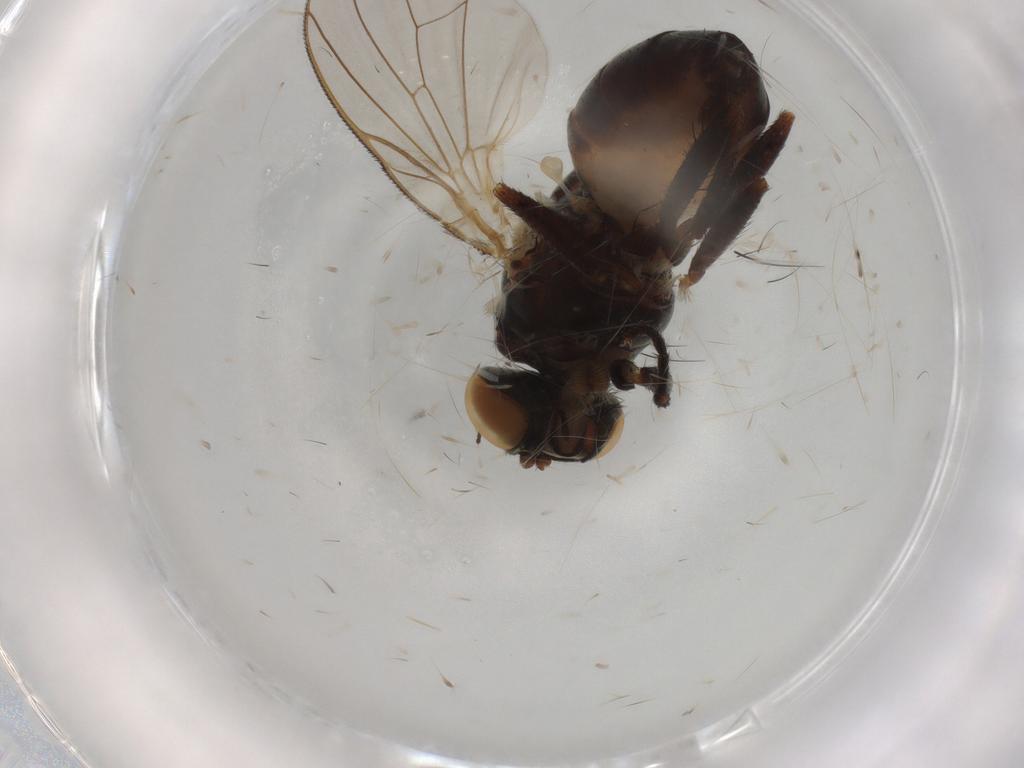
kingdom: Animalia
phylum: Arthropoda
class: Insecta
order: Diptera
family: Fannia
